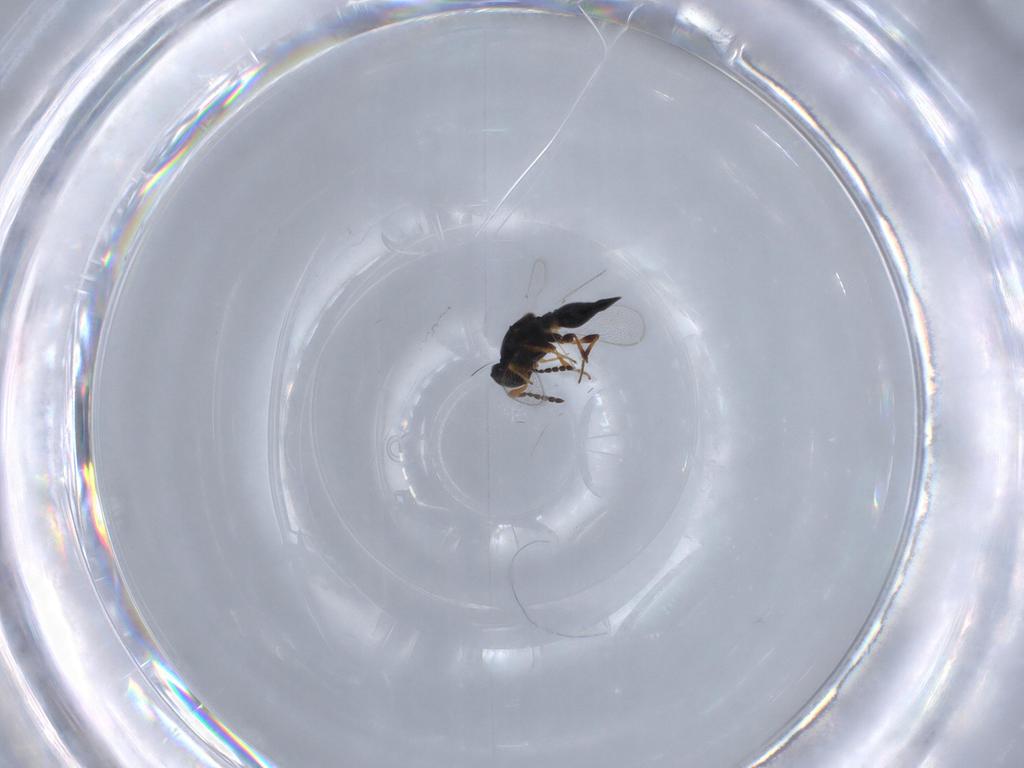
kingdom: Animalia
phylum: Arthropoda
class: Insecta
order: Hymenoptera
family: Platygastridae
